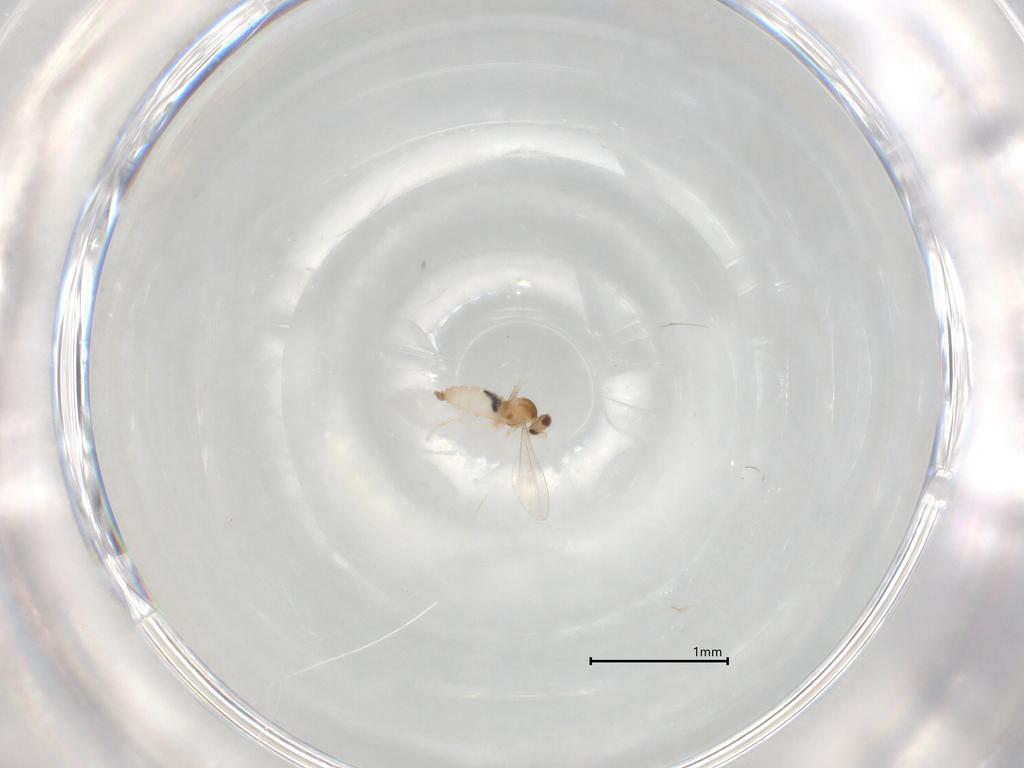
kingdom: Animalia
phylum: Arthropoda
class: Insecta
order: Diptera
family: Cecidomyiidae
